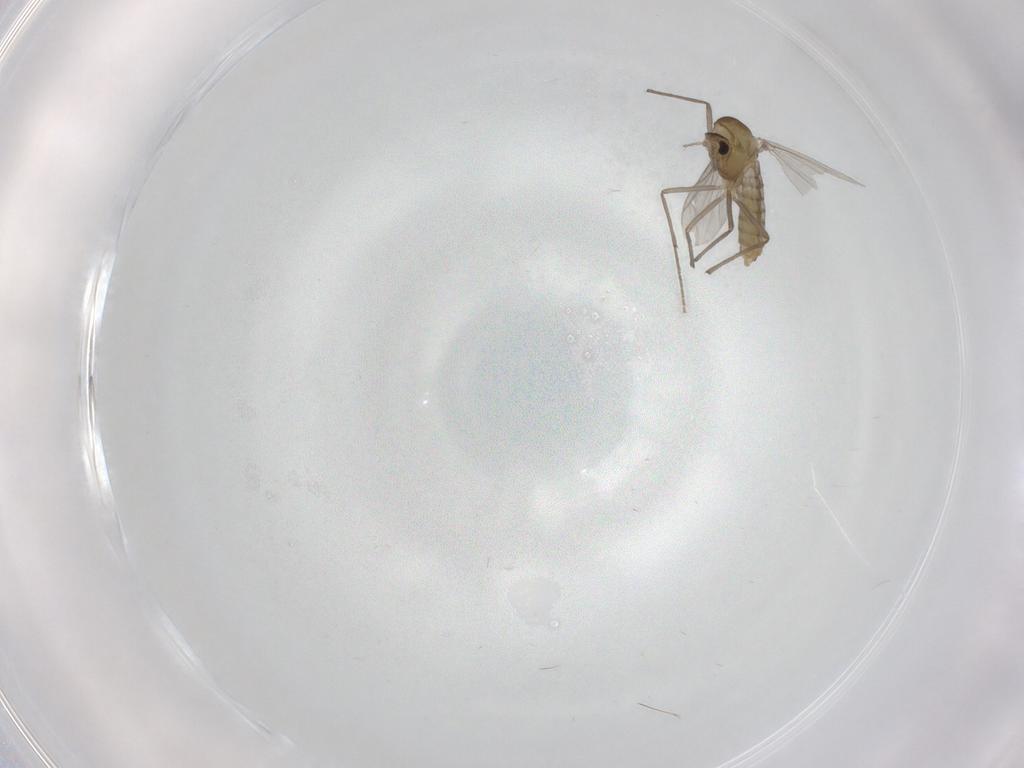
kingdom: Animalia
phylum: Arthropoda
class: Insecta
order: Diptera
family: Chironomidae
